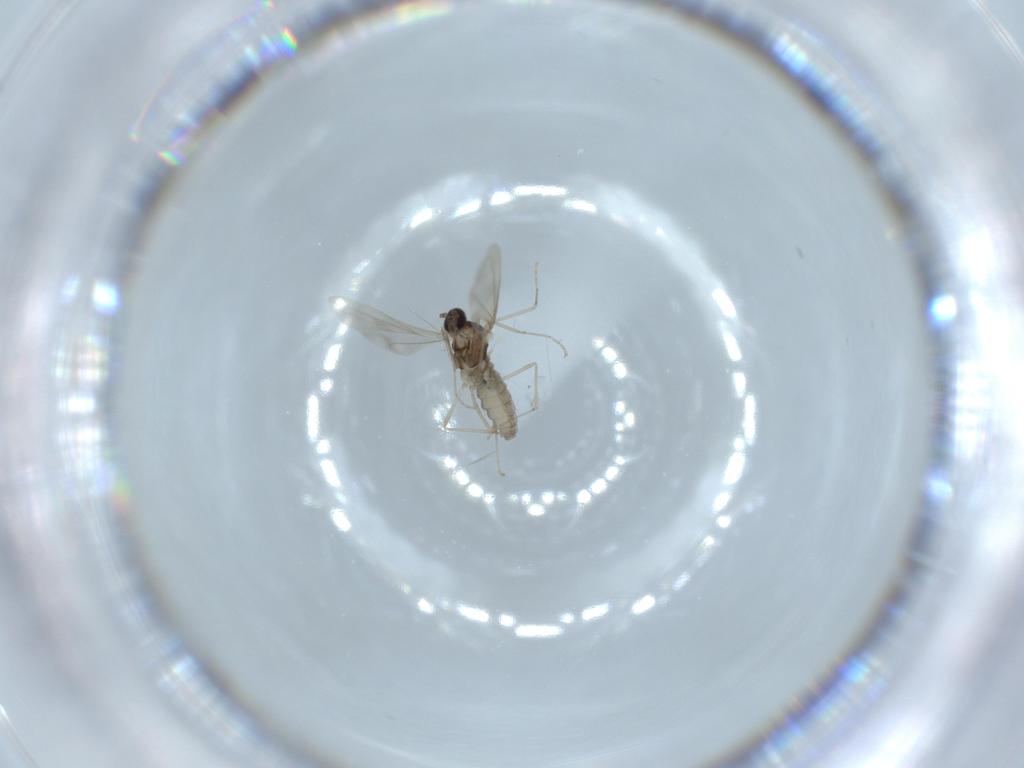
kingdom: Animalia
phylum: Arthropoda
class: Insecta
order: Diptera
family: Cecidomyiidae
